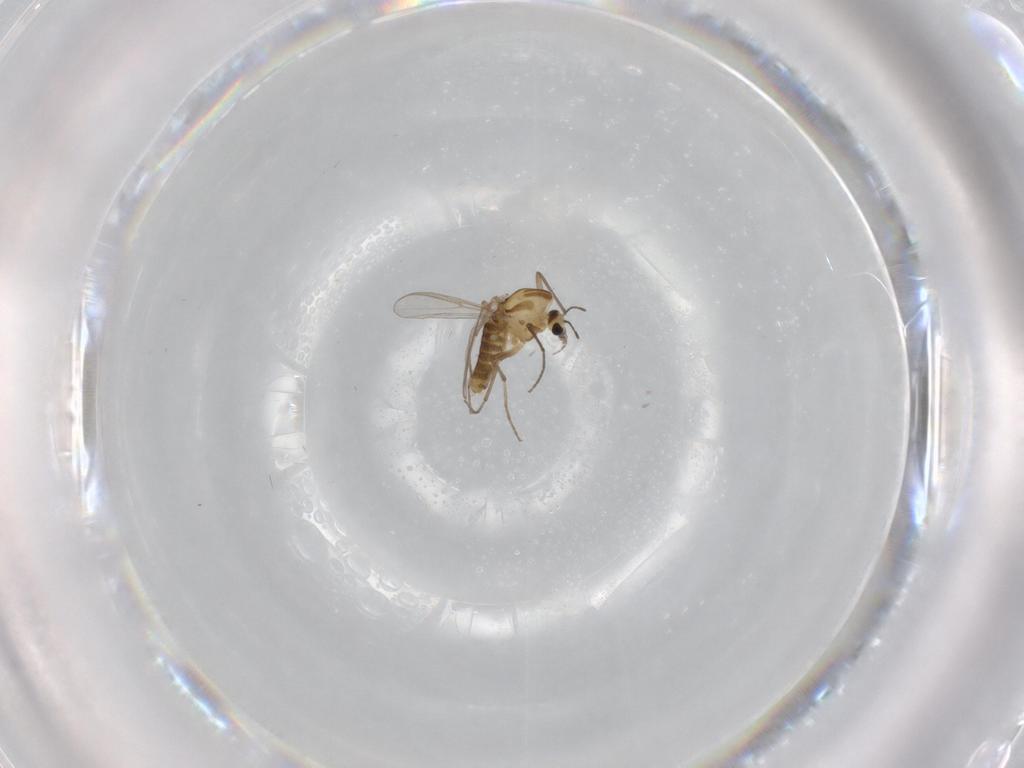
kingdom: Animalia
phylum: Arthropoda
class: Insecta
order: Diptera
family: Chironomidae
